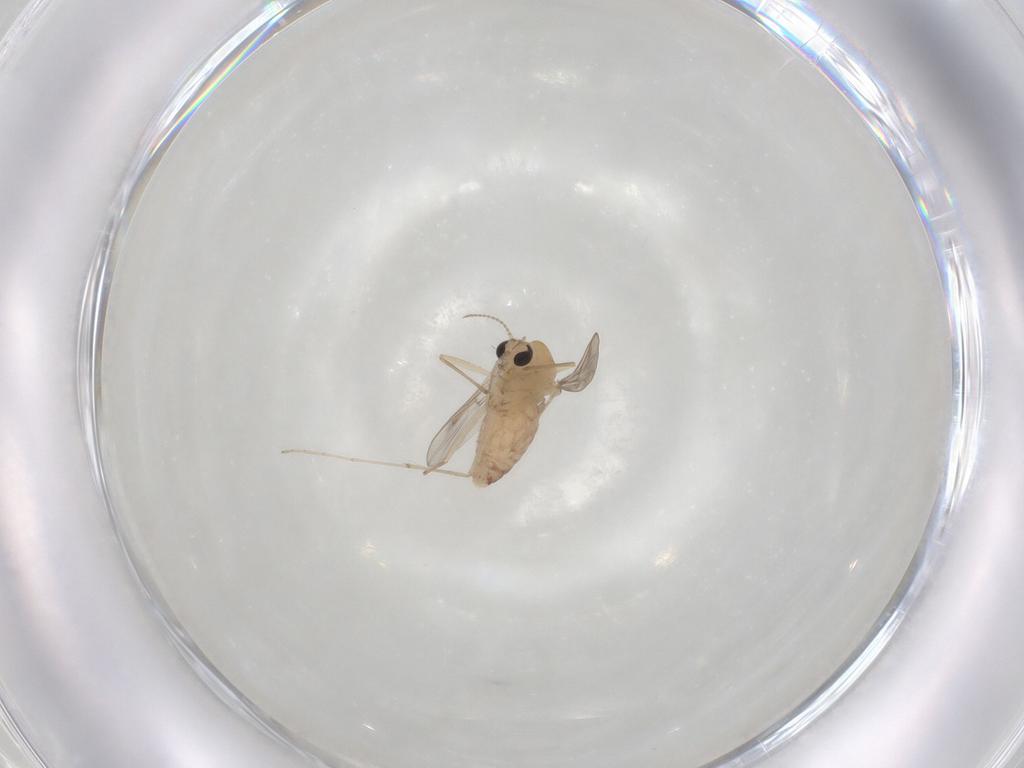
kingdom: Animalia
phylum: Arthropoda
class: Insecta
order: Diptera
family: Chironomidae
